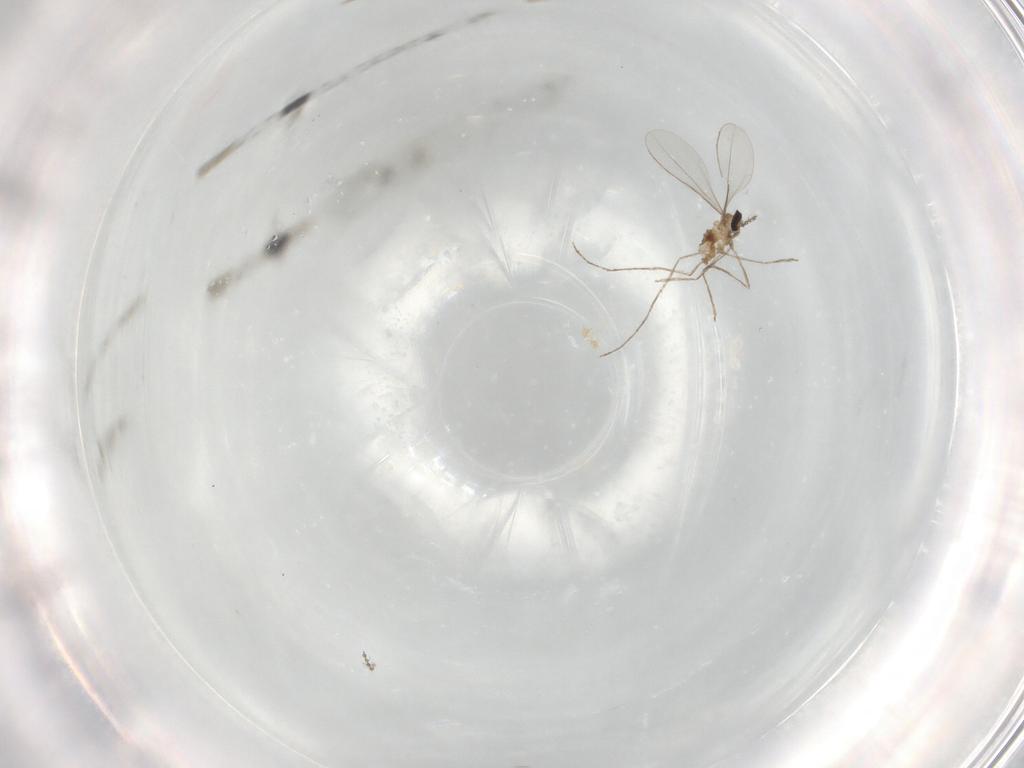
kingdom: Animalia
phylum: Arthropoda
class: Insecta
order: Diptera
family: Cecidomyiidae
